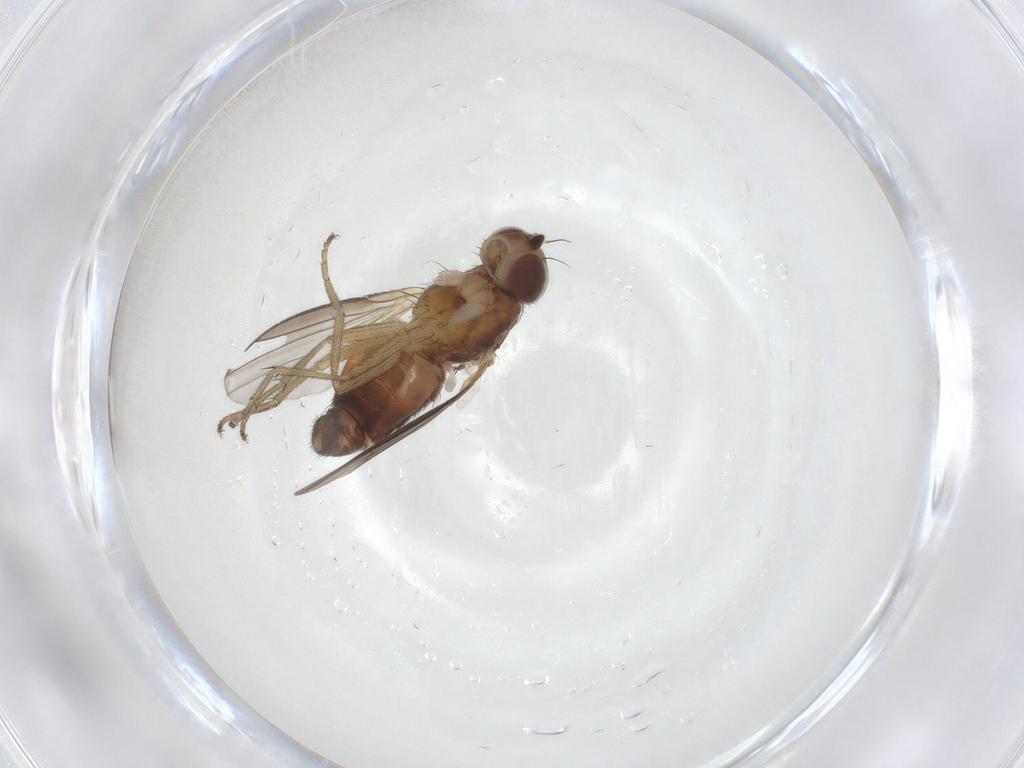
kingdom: Animalia
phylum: Arthropoda
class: Insecta
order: Diptera
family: Heleomyzidae
